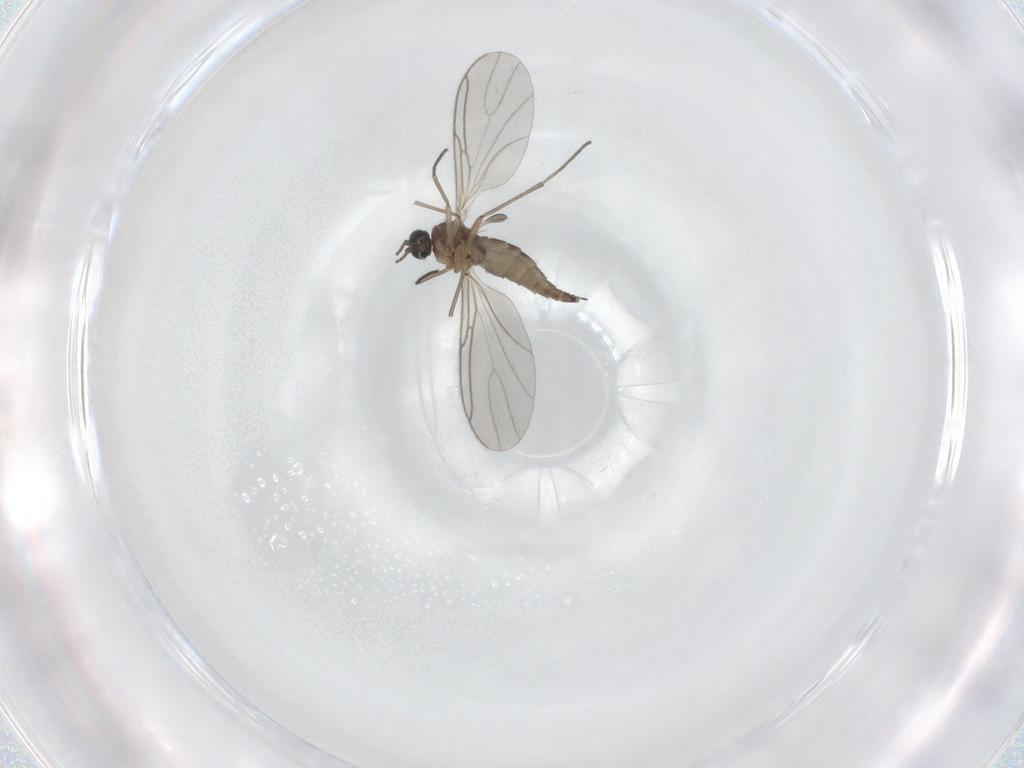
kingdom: Animalia
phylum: Arthropoda
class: Insecta
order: Diptera
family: Sciaridae
